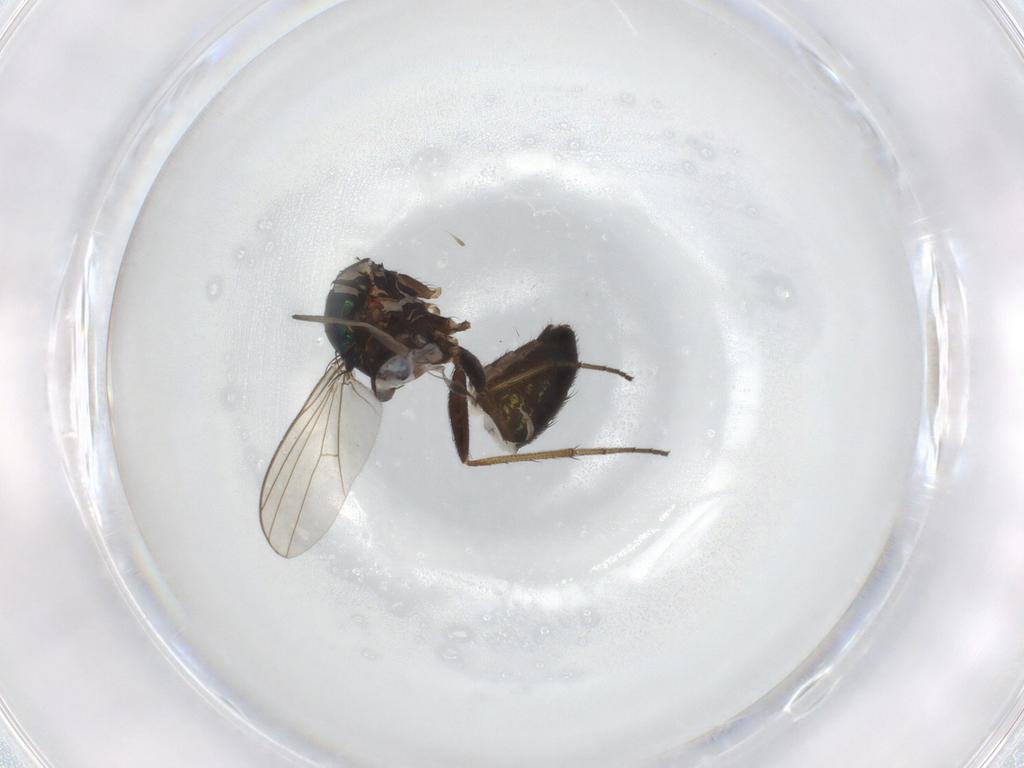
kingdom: Animalia
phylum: Arthropoda
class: Insecta
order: Diptera
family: Dolichopodidae
